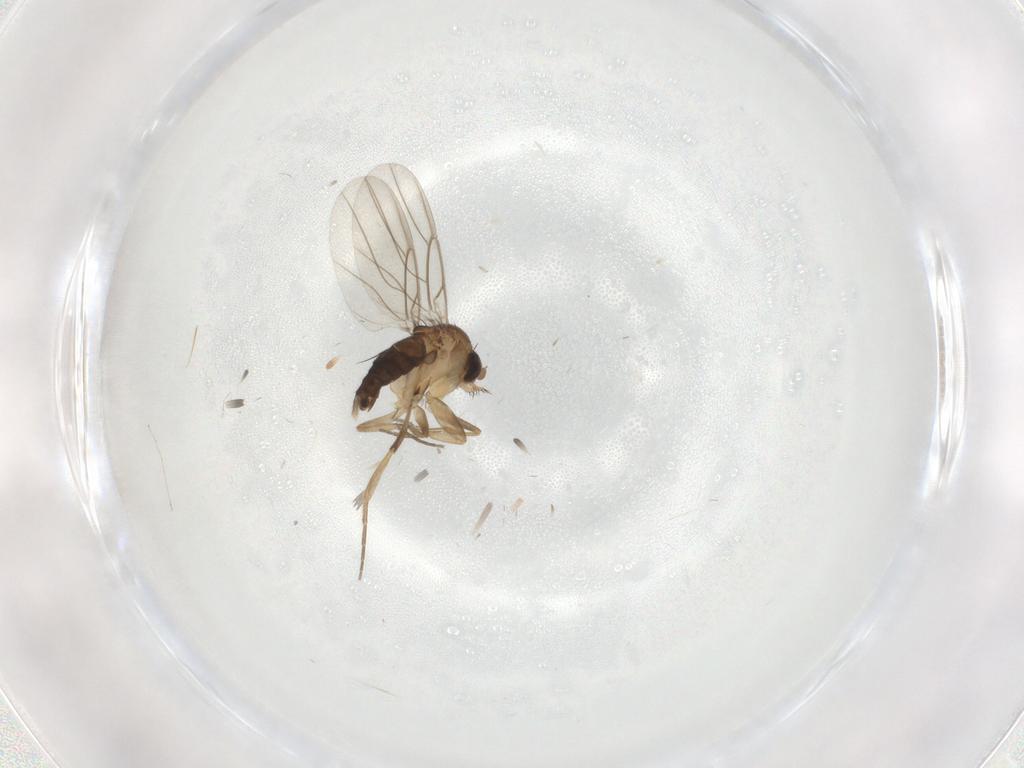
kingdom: Animalia
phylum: Arthropoda
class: Insecta
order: Diptera
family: Phoridae
